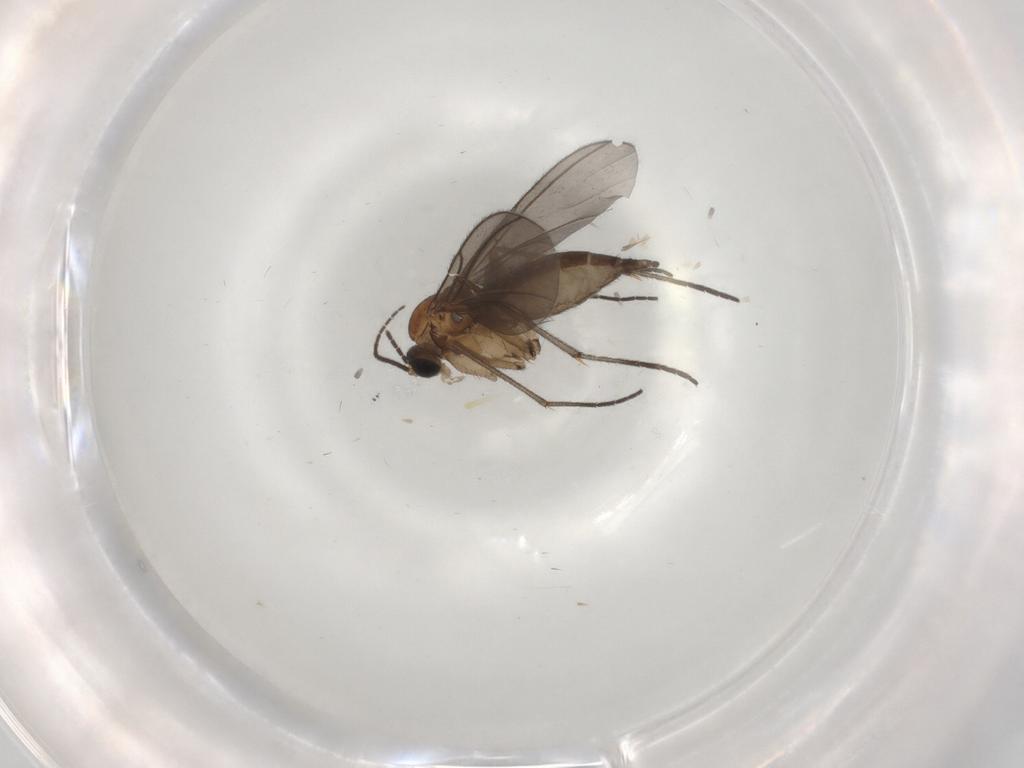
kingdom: Animalia
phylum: Arthropoda
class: Insecta
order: Diptera
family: Sciaridae
